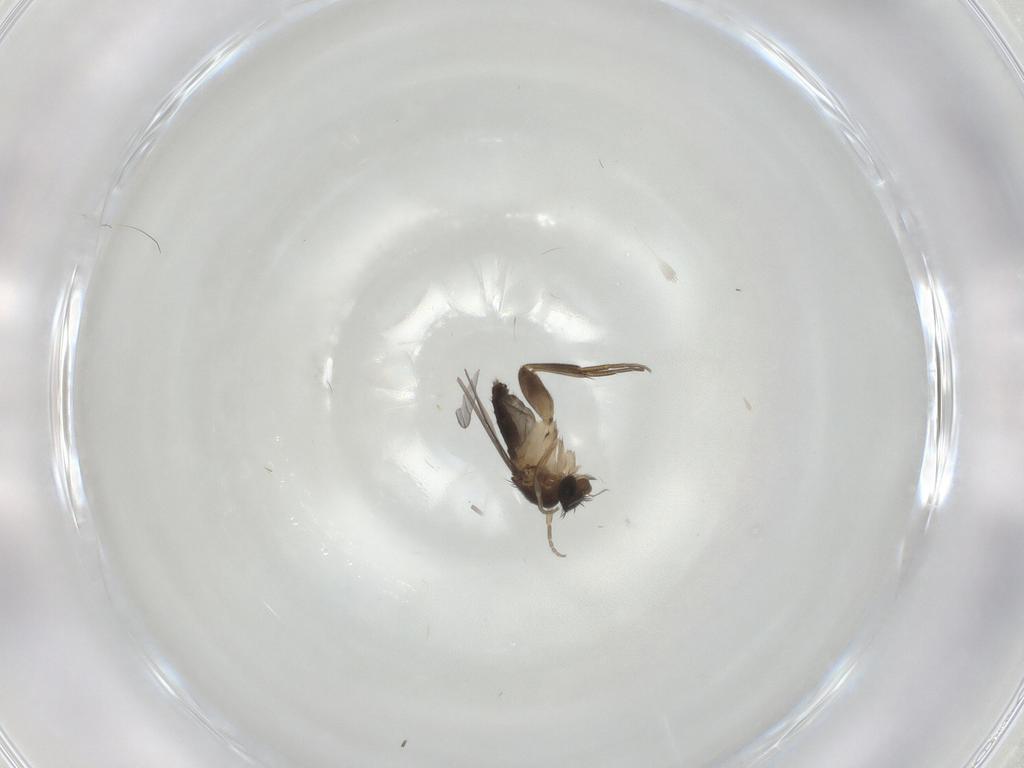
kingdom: Animalia
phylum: Arthropoda
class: Insecta
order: Diptera
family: Phoridae
